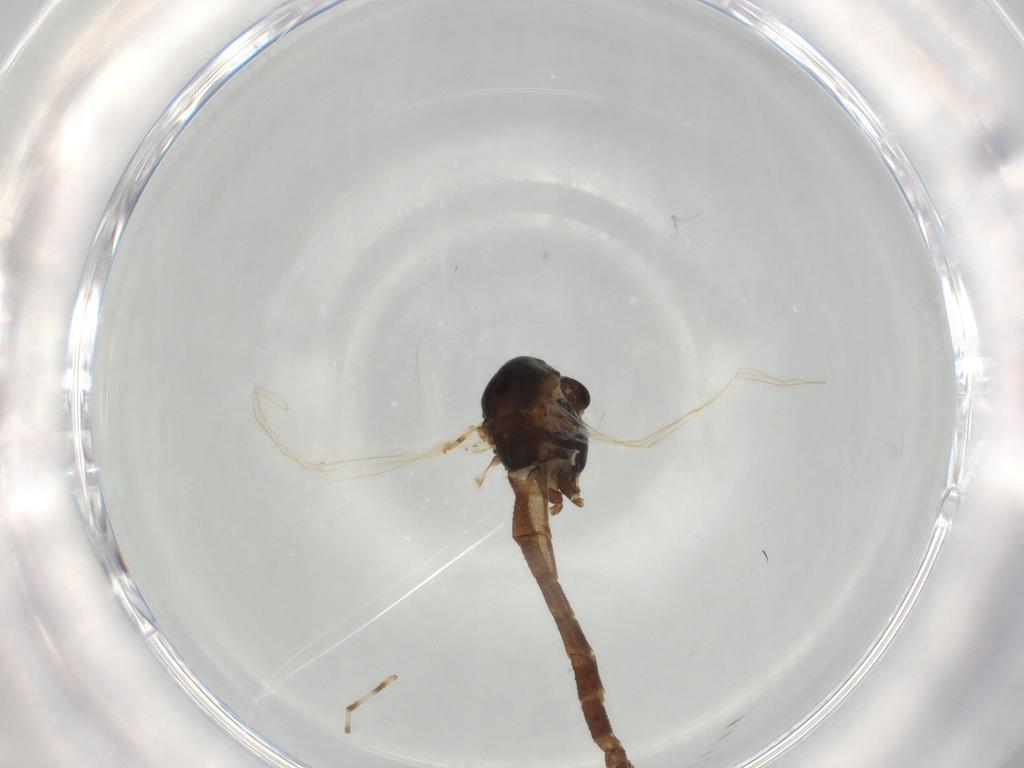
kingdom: Animalia
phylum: Arthropoda
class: Insecta
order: Diptera
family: Chironomidae
